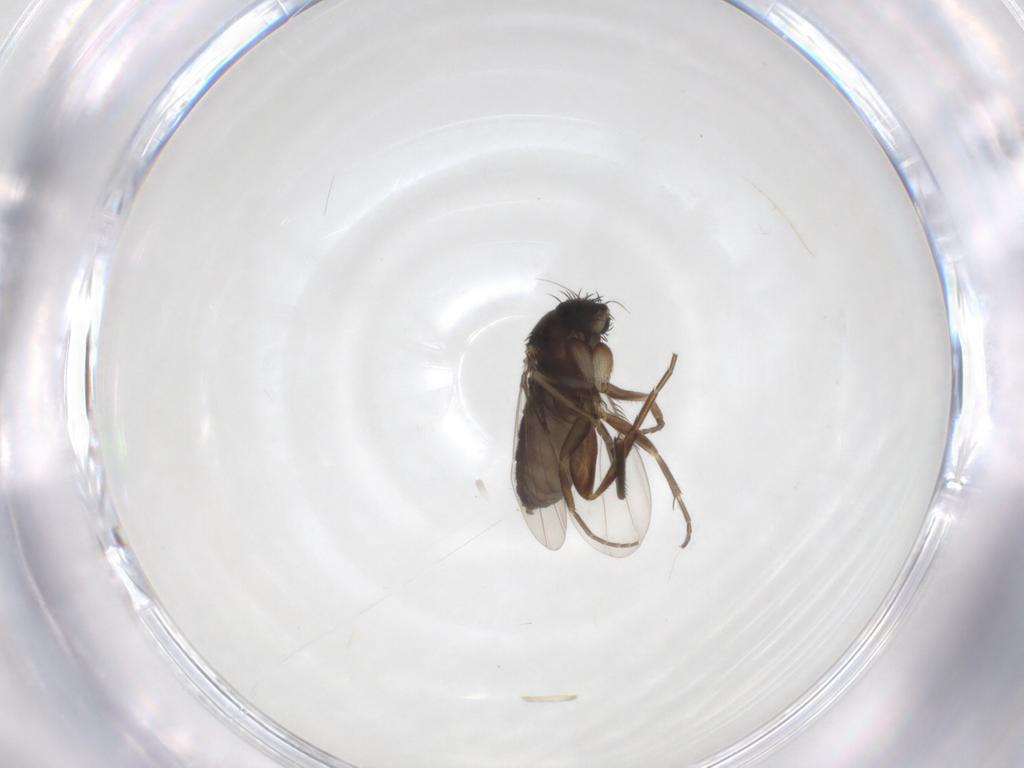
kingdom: Animalia
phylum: Arthropoda
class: Insecta
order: Diptera
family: Phoridae
